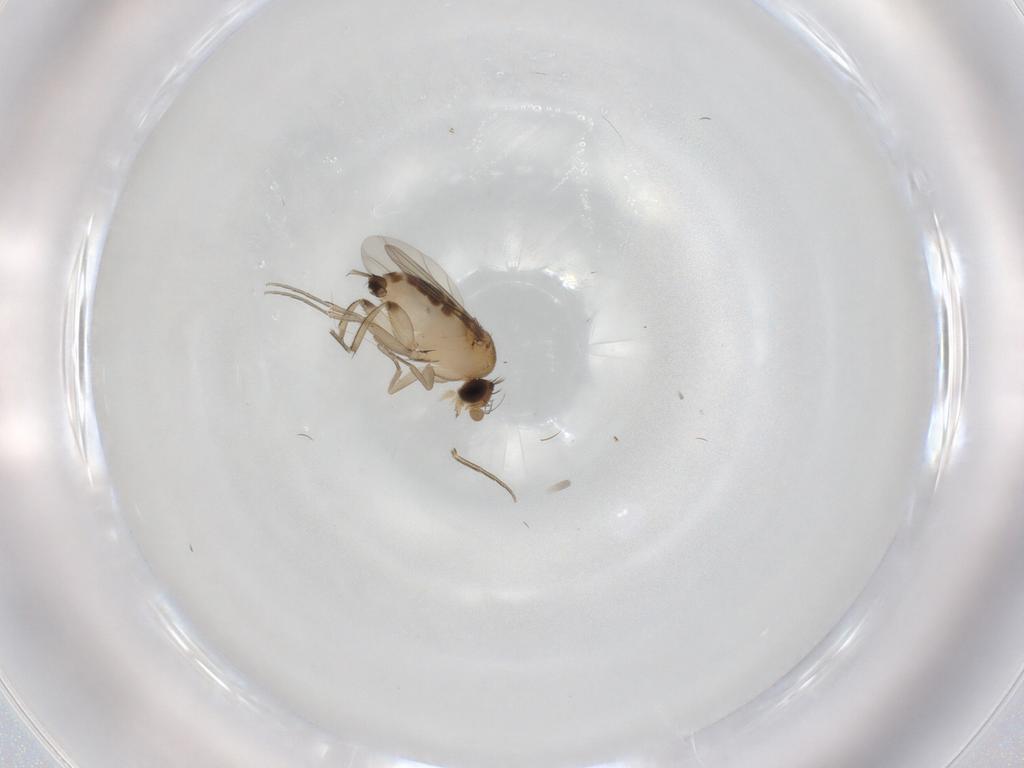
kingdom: Animalia
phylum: Arthropoda
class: Insecta
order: Diptera
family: Phoridae
